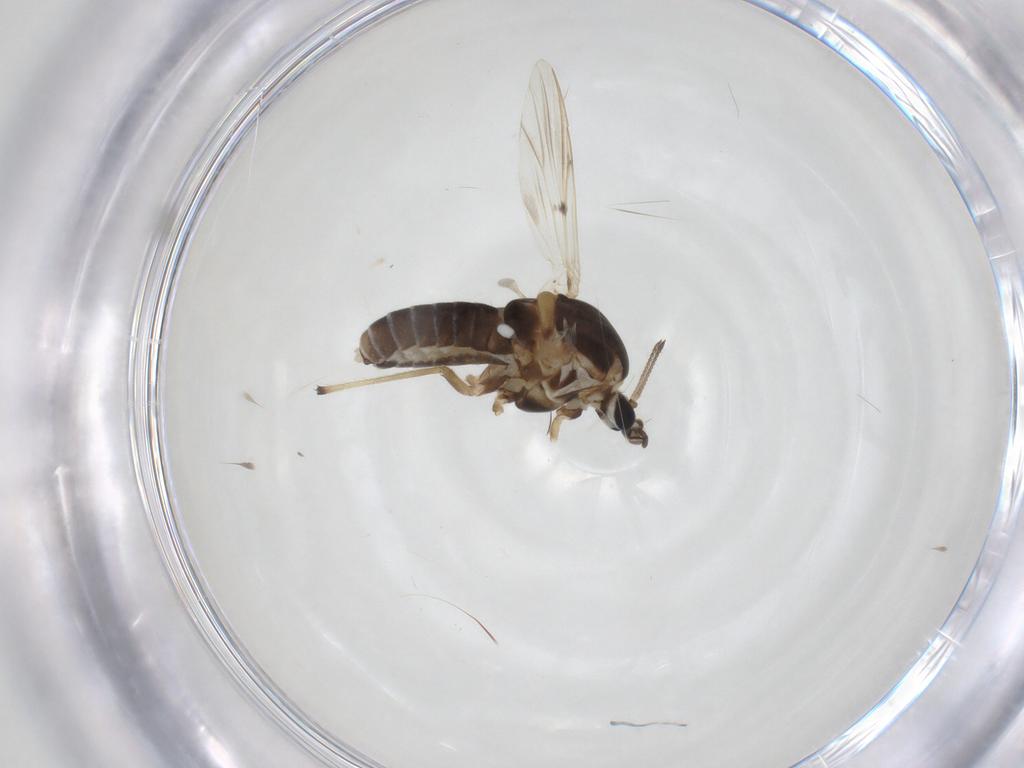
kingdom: Animalia
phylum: Arthropoda
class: Insecta
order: Diptera
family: Chironomidae
